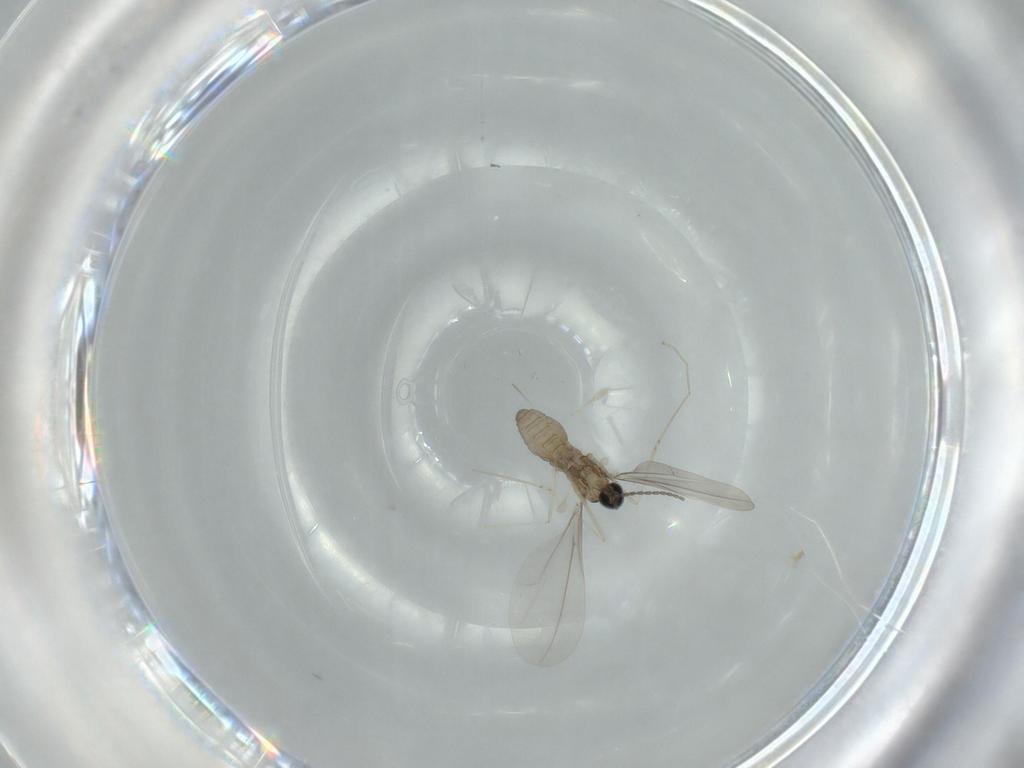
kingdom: Animalia
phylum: Arthropoda
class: Insecta
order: Diptera
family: Cecidomyiidae
